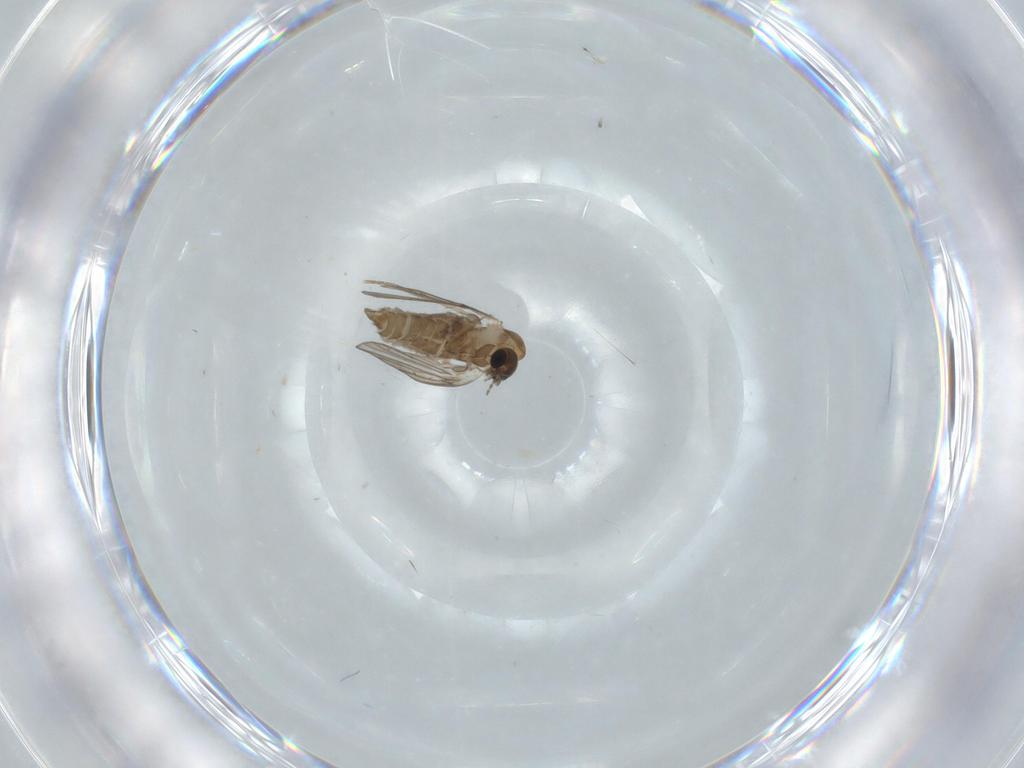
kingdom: Animalia
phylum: Arthropoda
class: Insecta
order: Diptera
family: Psychodidae
